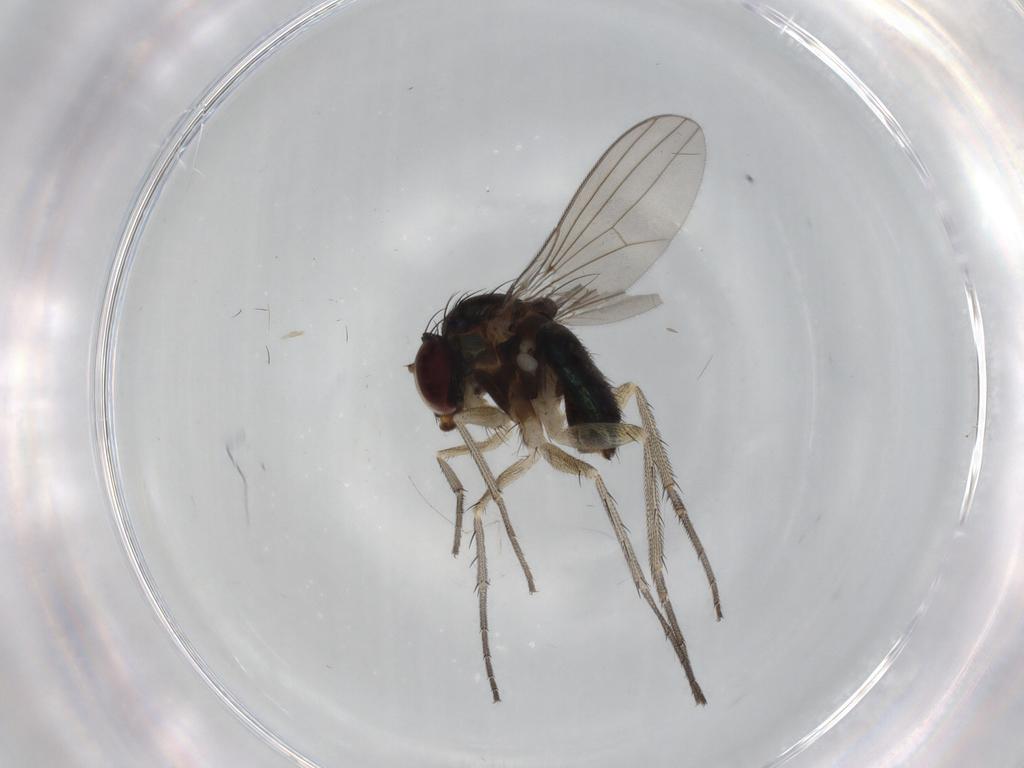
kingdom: Animalia
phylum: Arthropoda
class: Insecta
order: Diptera
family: Dolichopodidae
